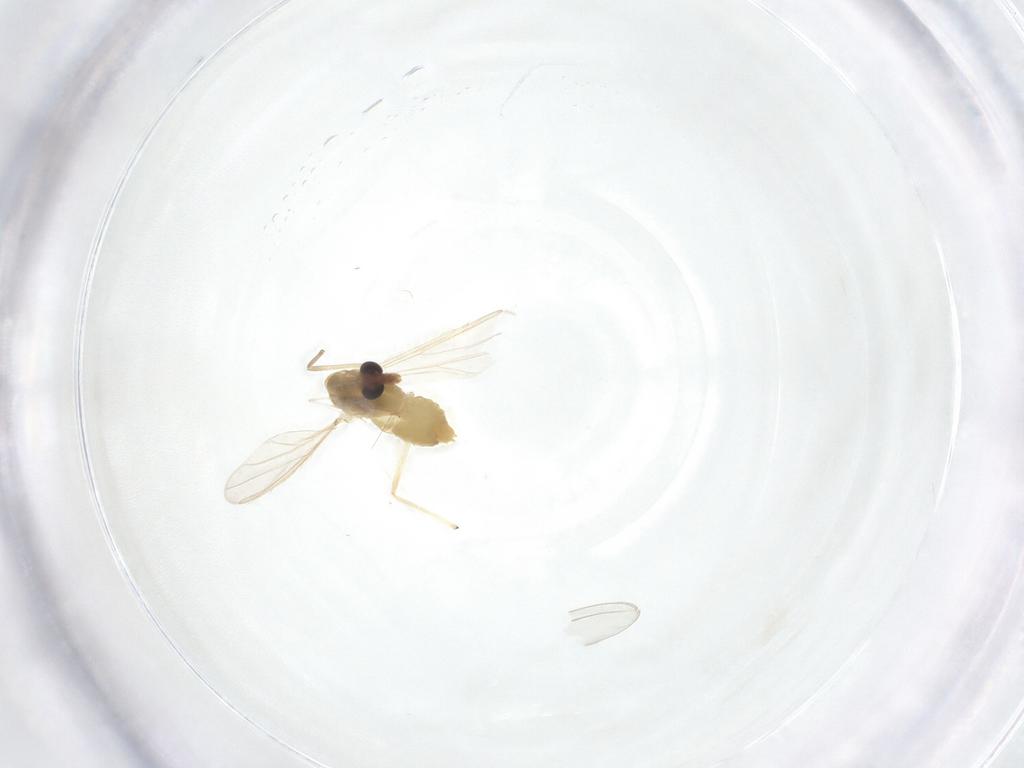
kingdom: Animalia
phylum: Arthropoda
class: Insecta
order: Diptera
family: Chironomidae
